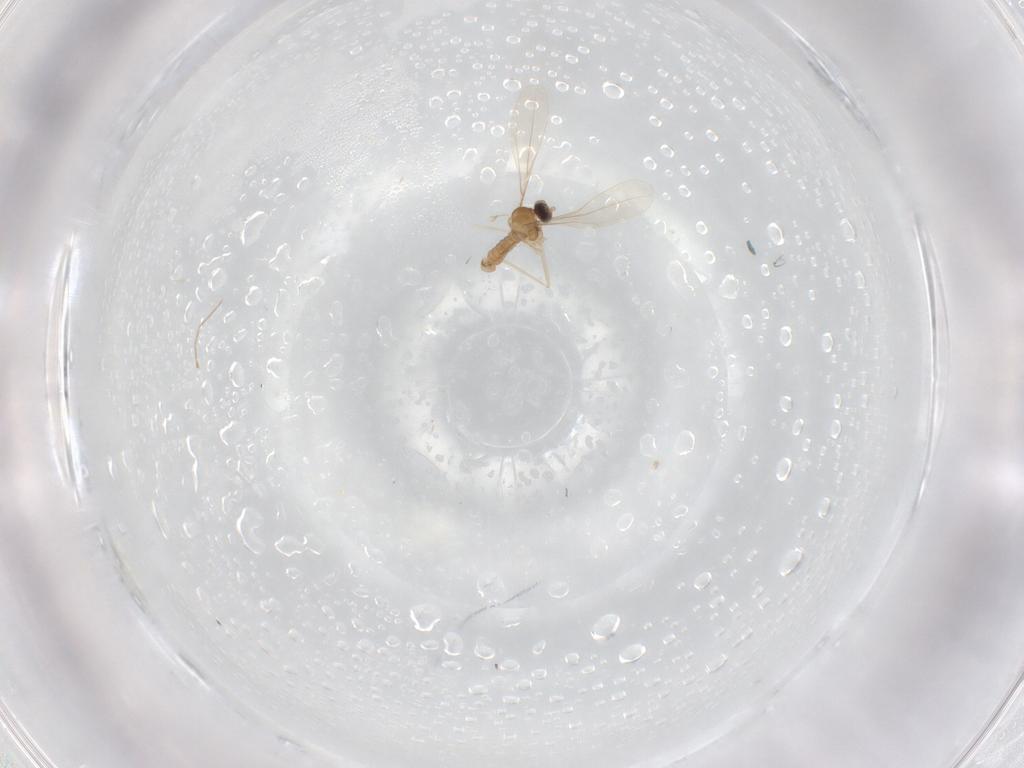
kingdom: Animalia
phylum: Arthropoda
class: Insecta
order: Diptera
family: Cecidomyiidae
